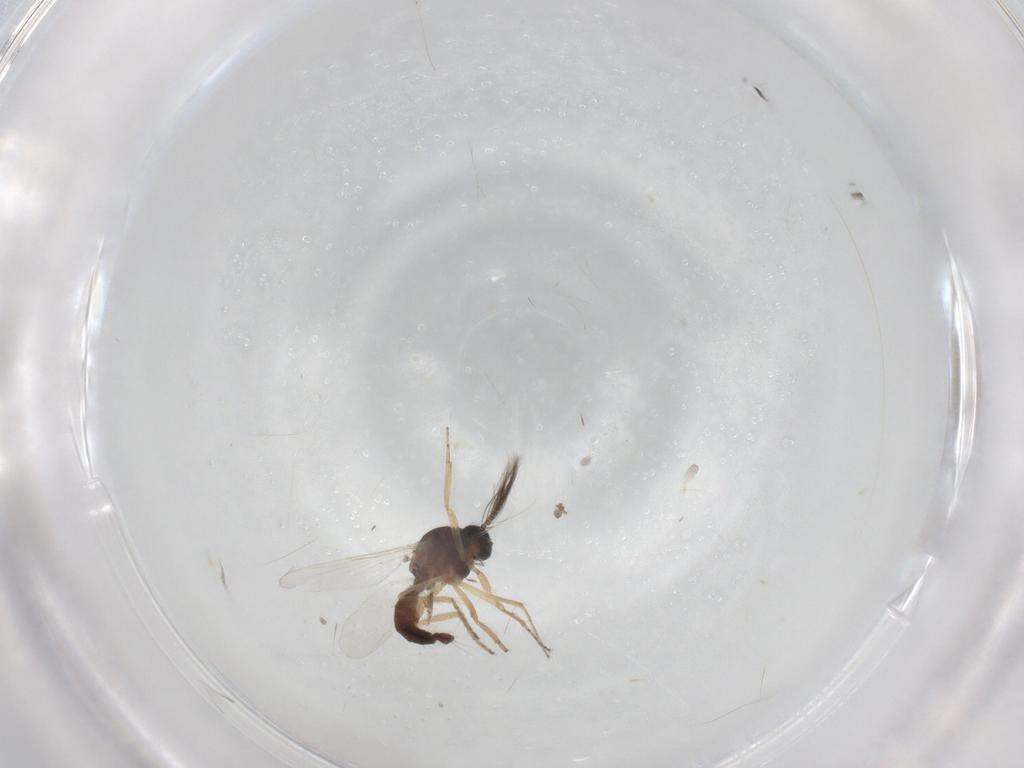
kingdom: Animalia
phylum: Arthropoda
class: Insecta
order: Diptera
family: Ceratopogonidae
